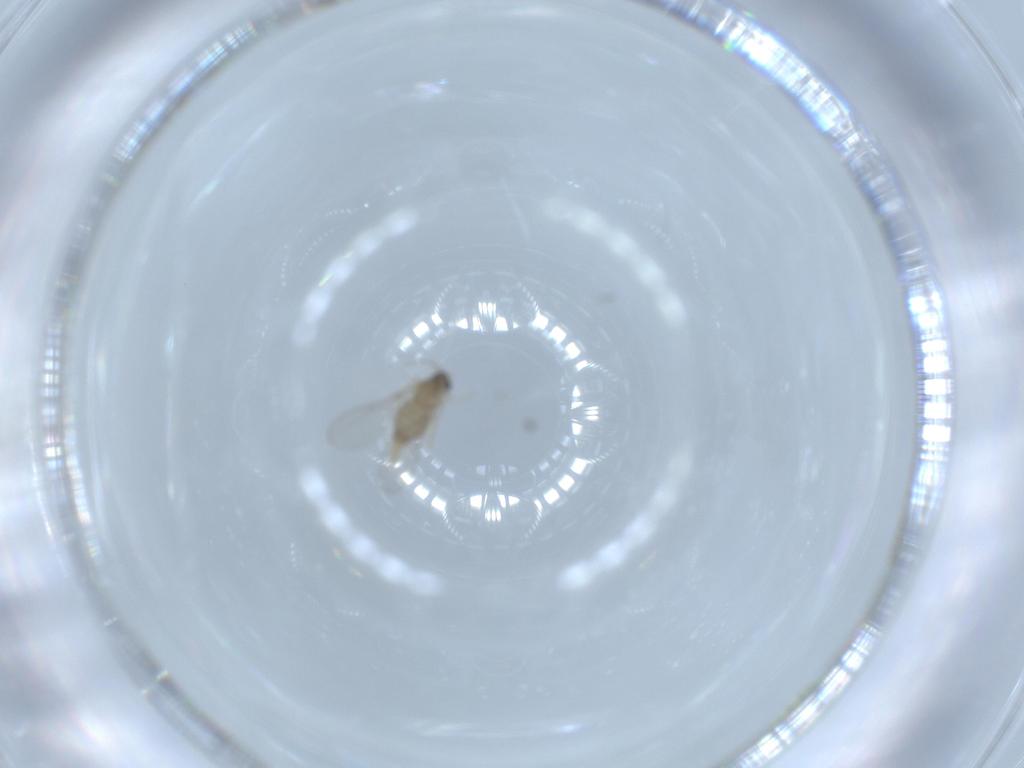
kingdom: Animalia
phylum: Arthropoda
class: Insecta
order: Diptera
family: Cecidomyiidae
